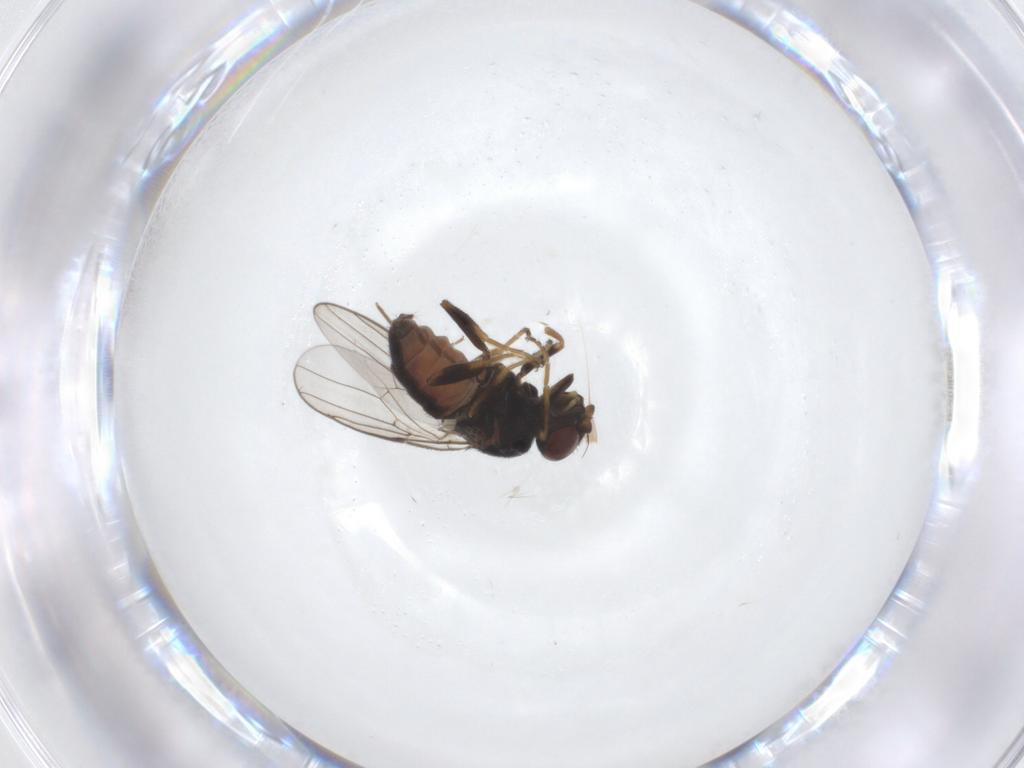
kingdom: Animalia
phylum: Arthropoda
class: Insecta
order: Diptera
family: Chloropidae
